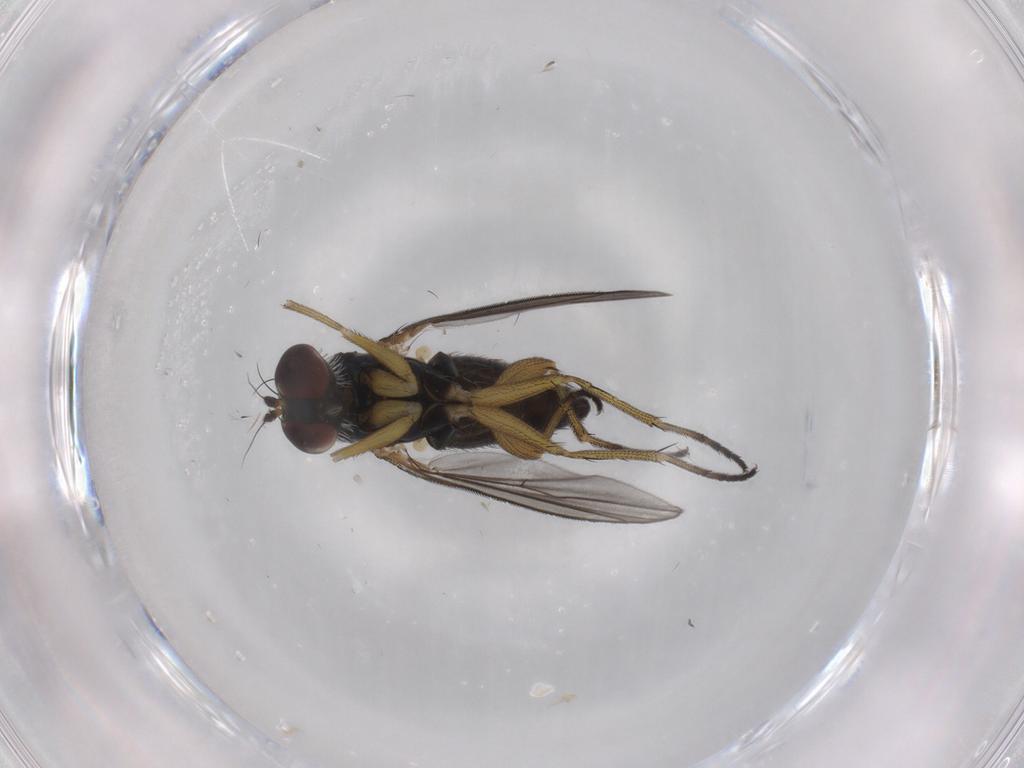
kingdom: Animalia
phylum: Arthropoda
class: Insecta
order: Diptera
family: Dolichopodidae
